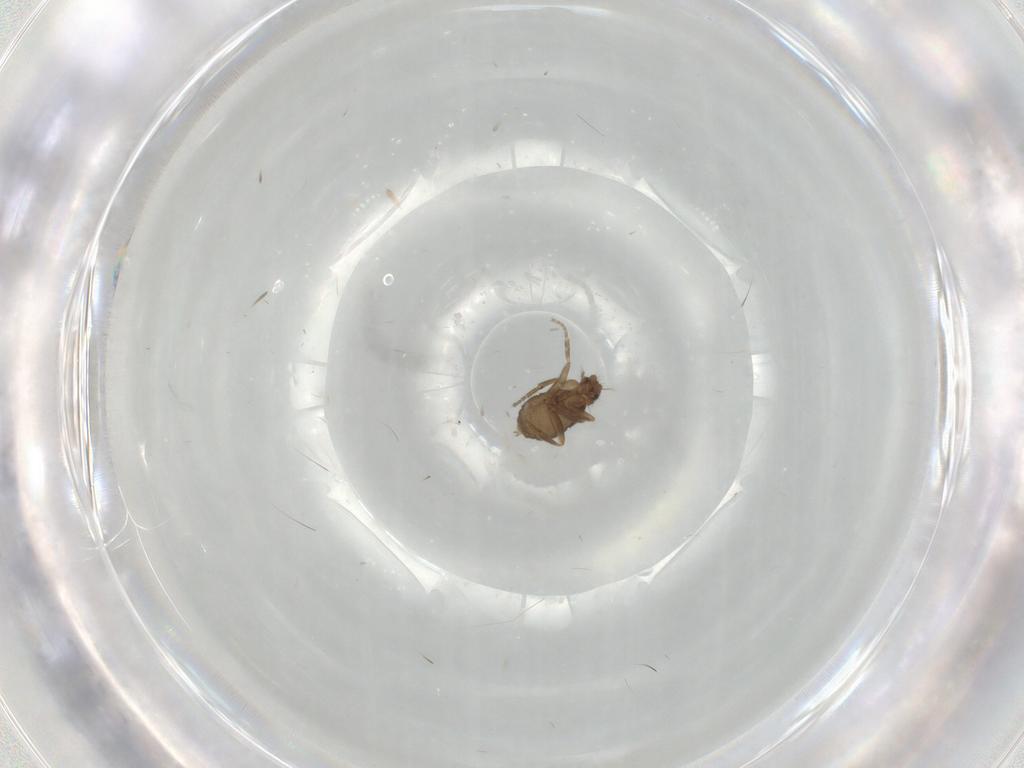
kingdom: Animalia
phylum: Arthropoda
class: Insecta
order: Diptera
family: Phoridae
